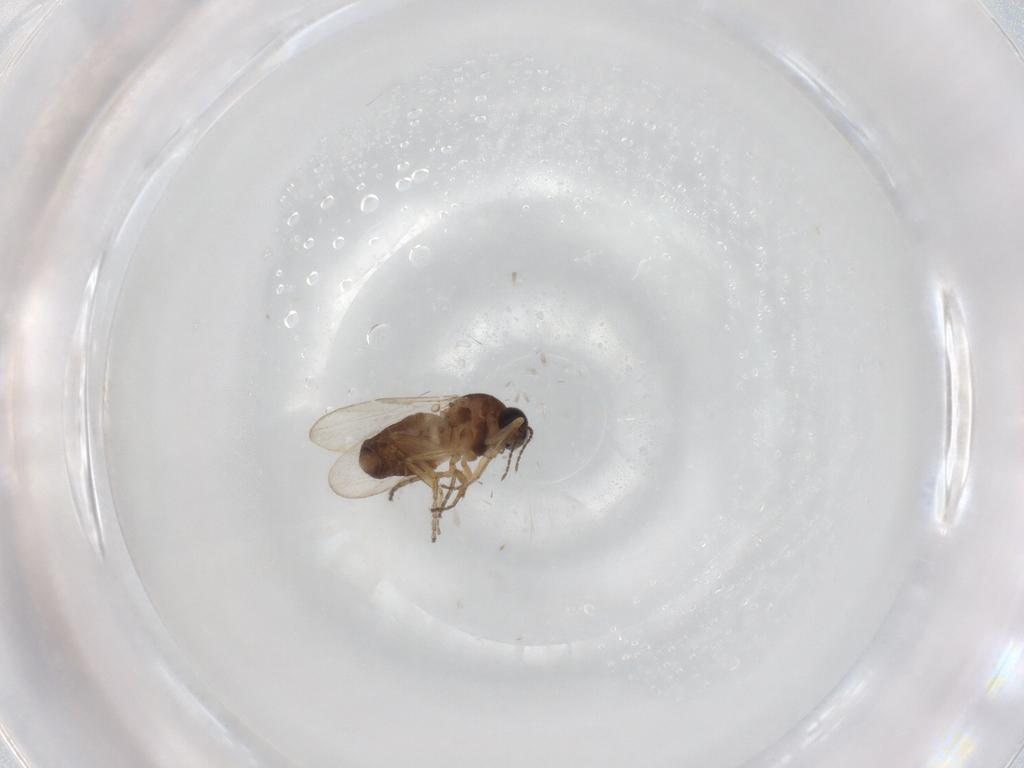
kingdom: Animalia
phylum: Arthropoda
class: Insecta
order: Diptera
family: Ceratopogonidae
